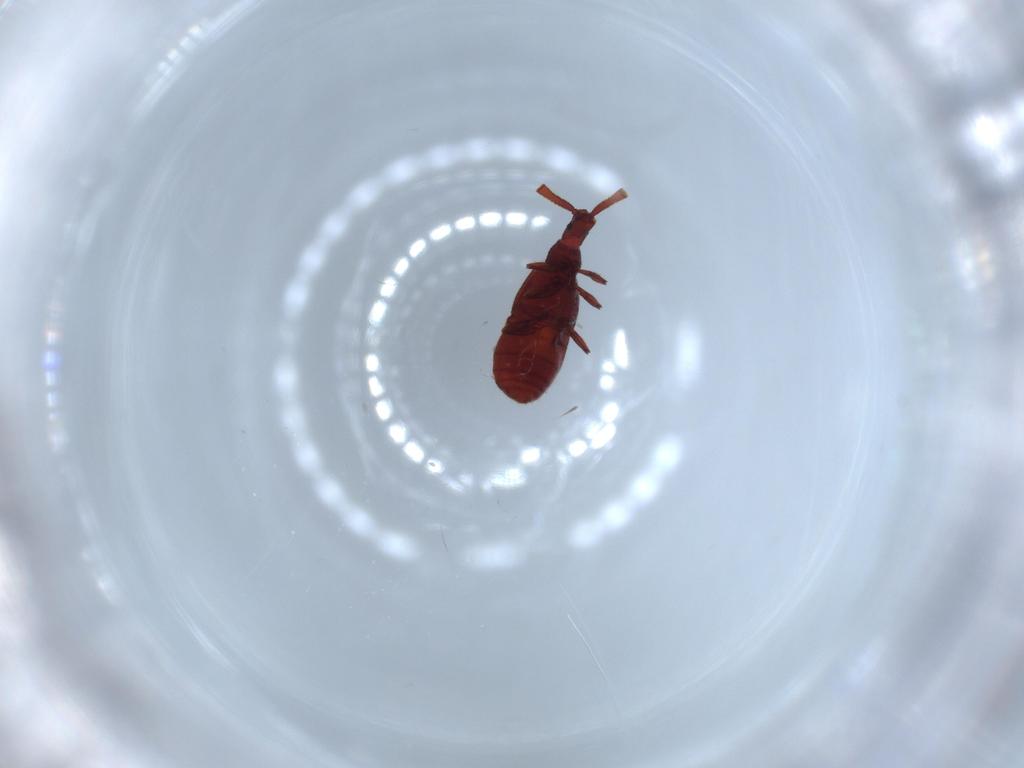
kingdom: Animalia
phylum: Arthropoda
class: Insecta
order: Coleoptera
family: Staphylinidae
